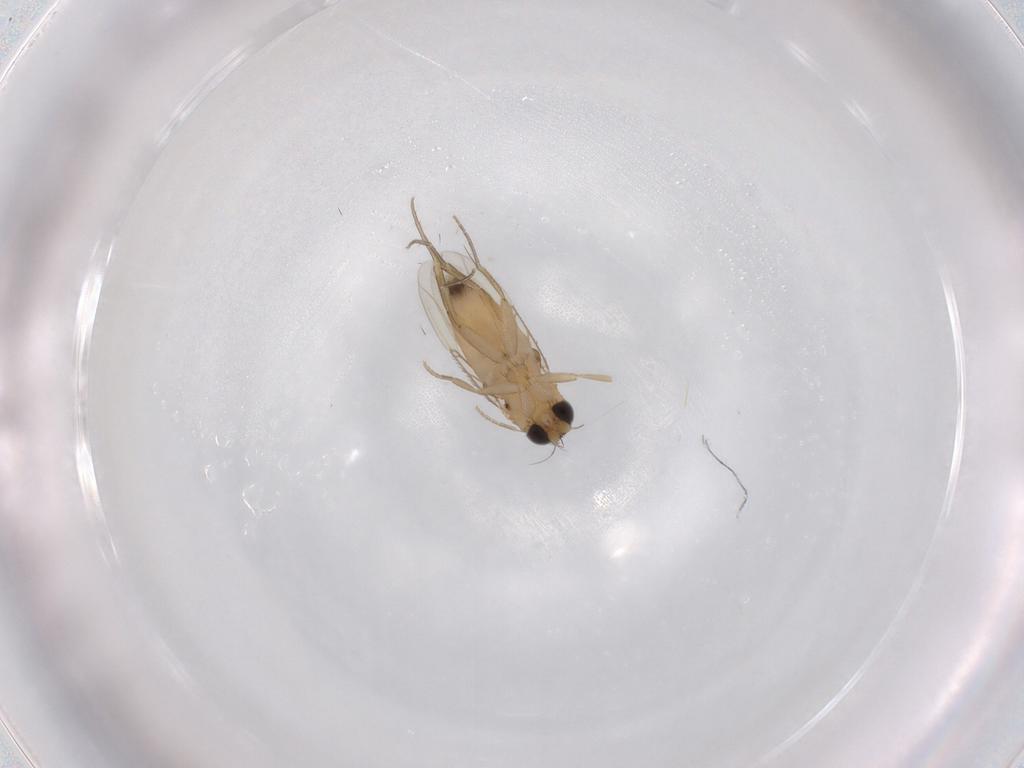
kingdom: Animalia
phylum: Arthropoda
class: Insecta
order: Diptera
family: Phoridae
